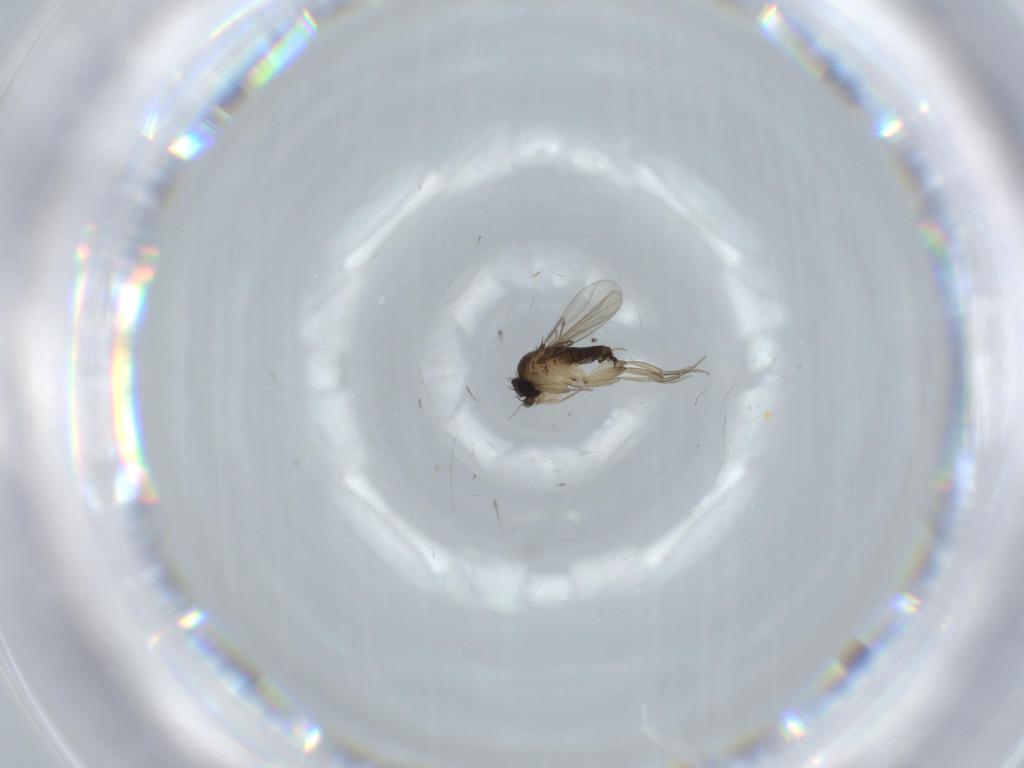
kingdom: Animalia
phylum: Arthropoda
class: Insecta
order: Diptera
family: Phoridae
